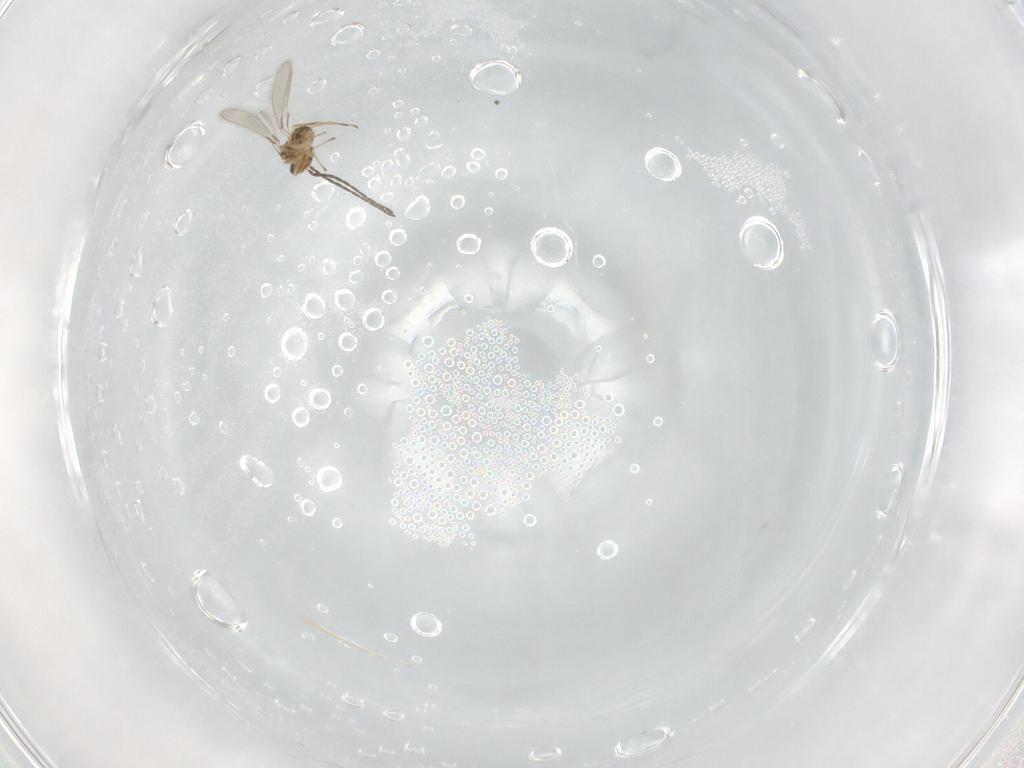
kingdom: Animalia
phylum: Arthropoda
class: Insecta
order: Hymenoptera
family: Mymaridae
